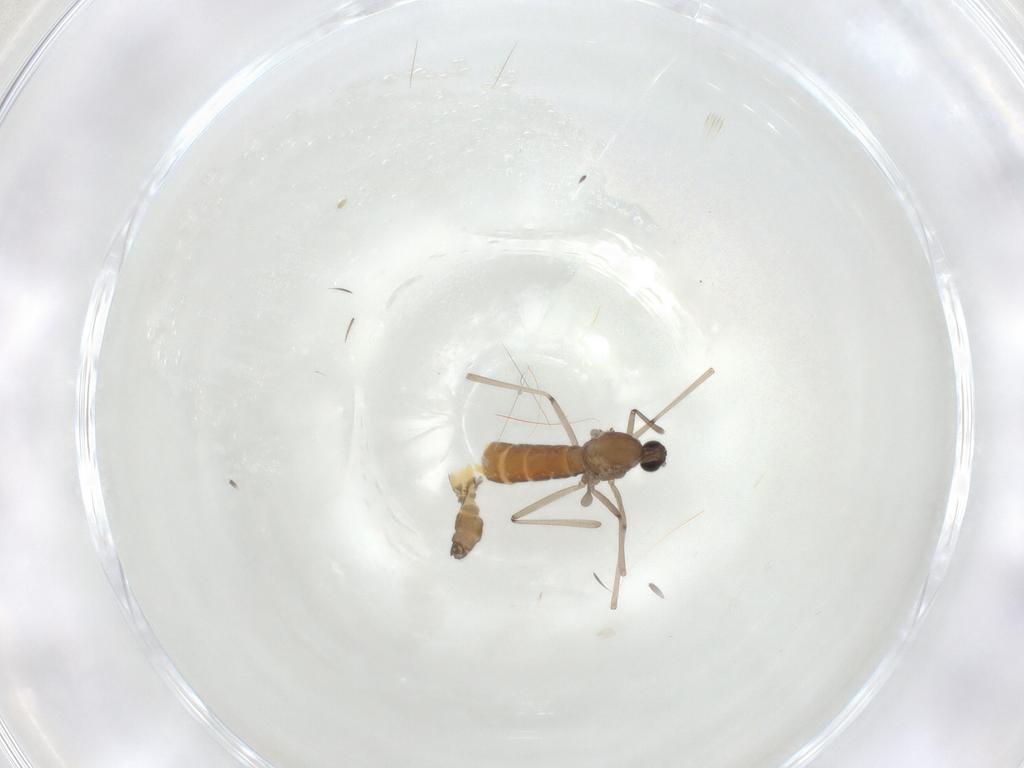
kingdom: Animalia
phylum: Arthropoda
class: Insecta
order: Diptera
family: Cecidomyiidae
